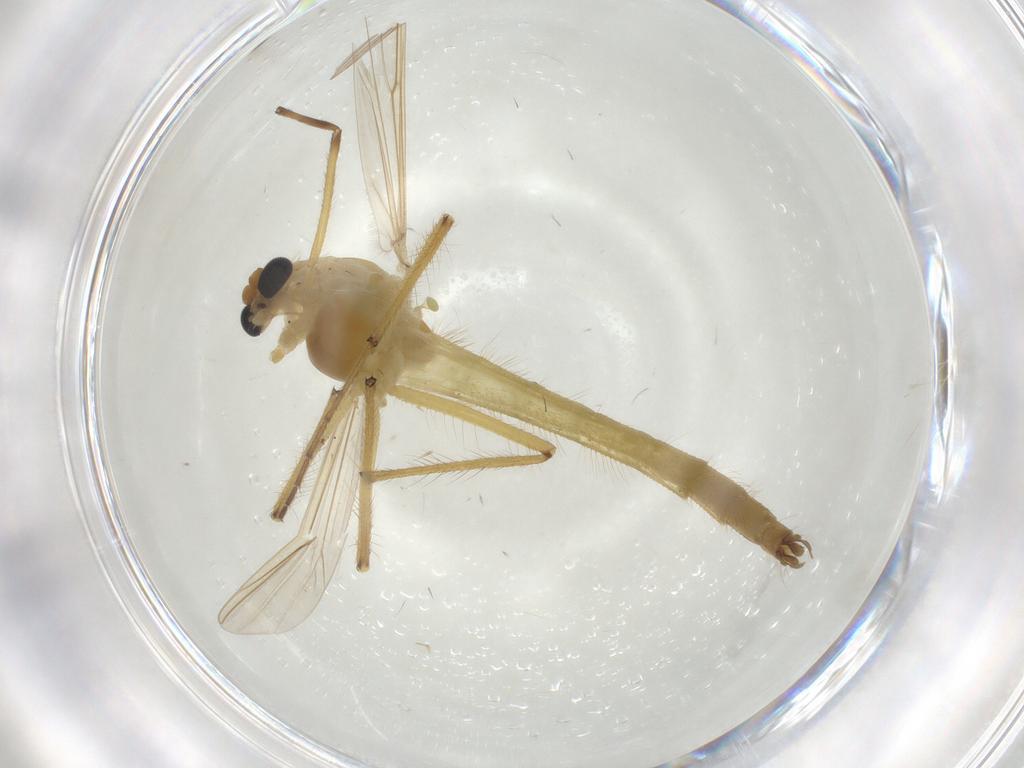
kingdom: Animalia
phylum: Arthropoda
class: Insecta
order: Diptera
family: Chironomidae
